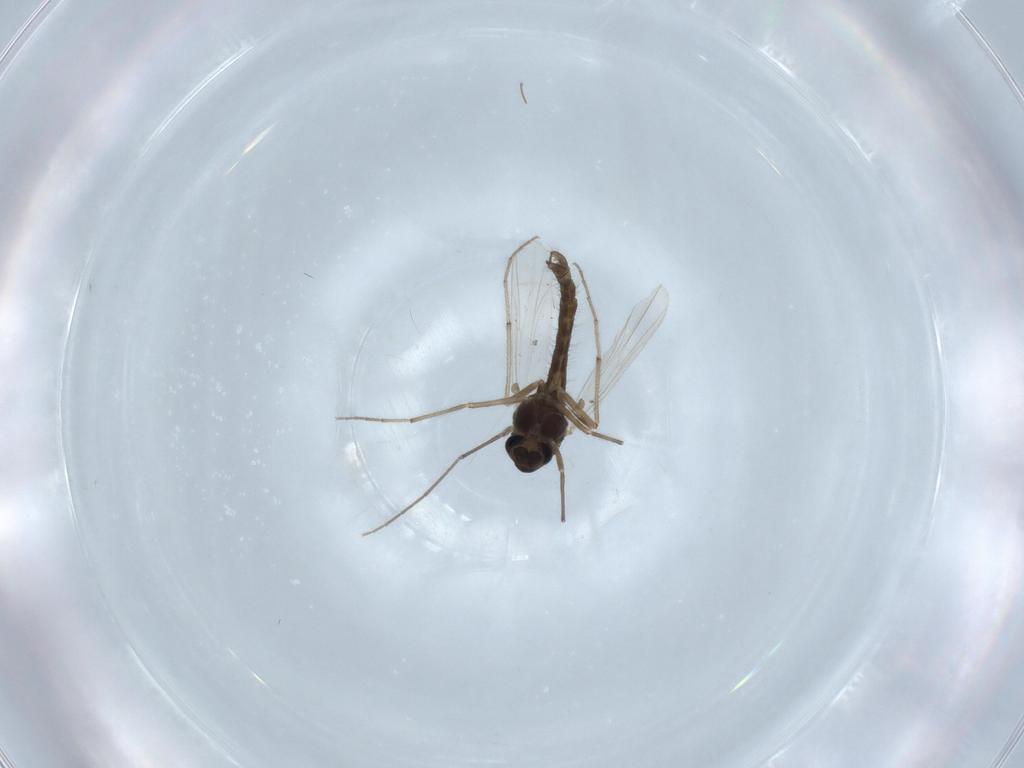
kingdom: Animalia
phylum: Arthropoda
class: Insecta
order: Diptera
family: Chironomidae
